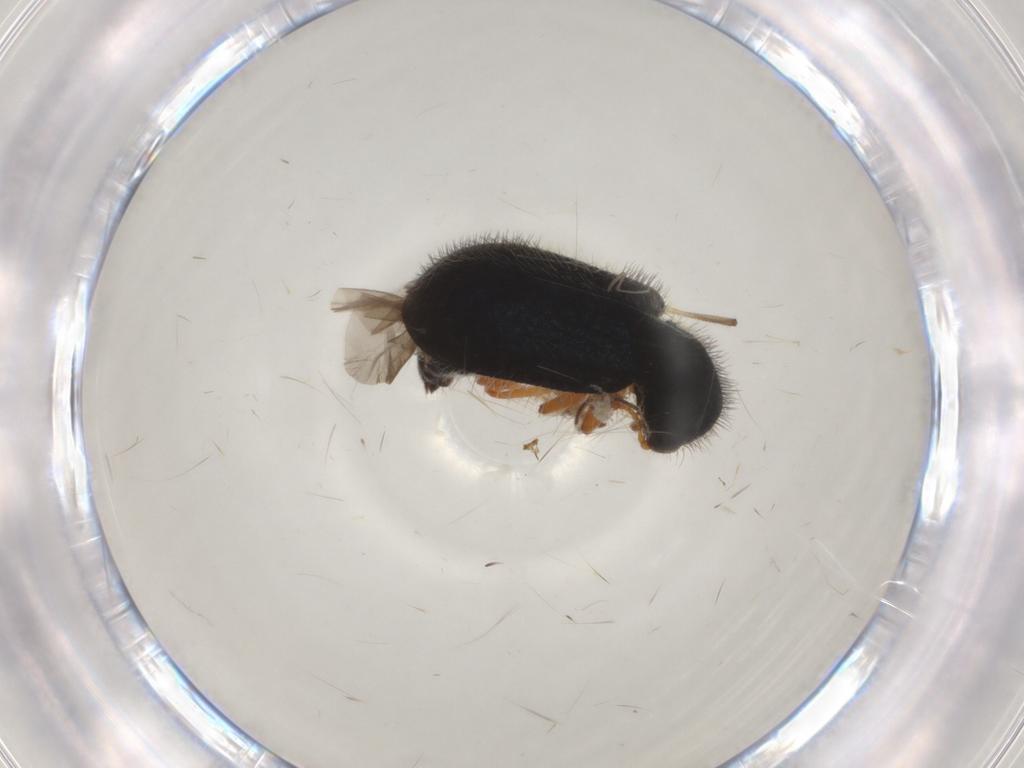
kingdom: Animalia
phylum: Arthropoda
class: Insecta
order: Coleoptera
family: Cleridae
